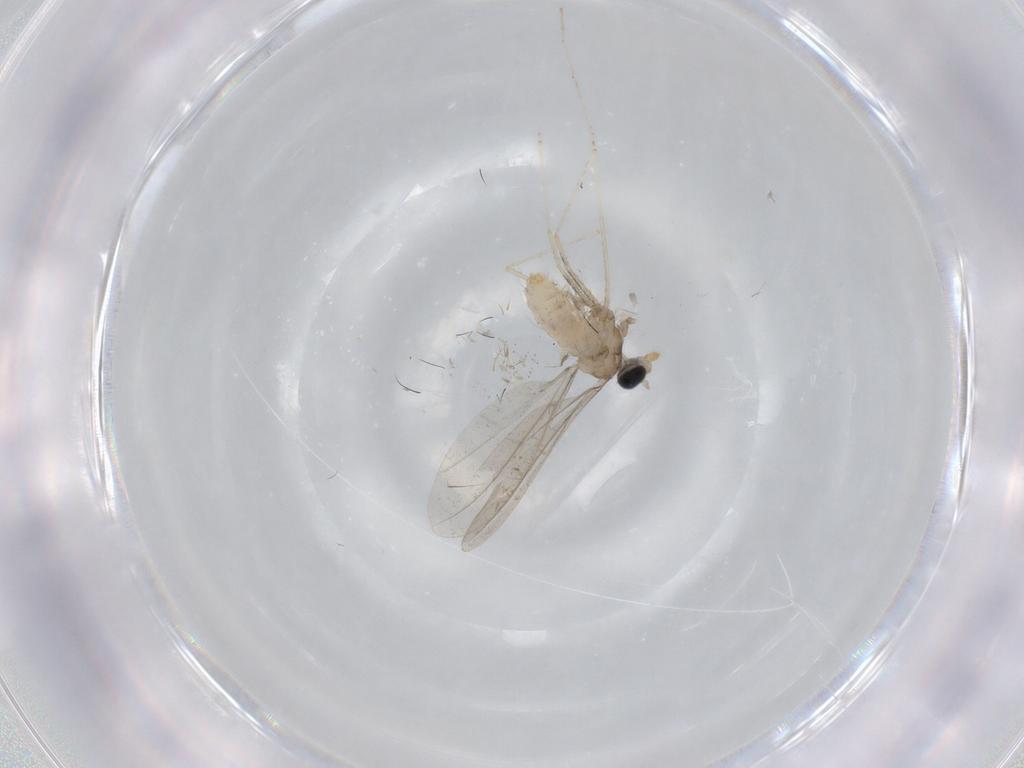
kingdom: Animalia
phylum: Arthropoda
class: Insecta
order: Diptera
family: Cecidomyiidae
